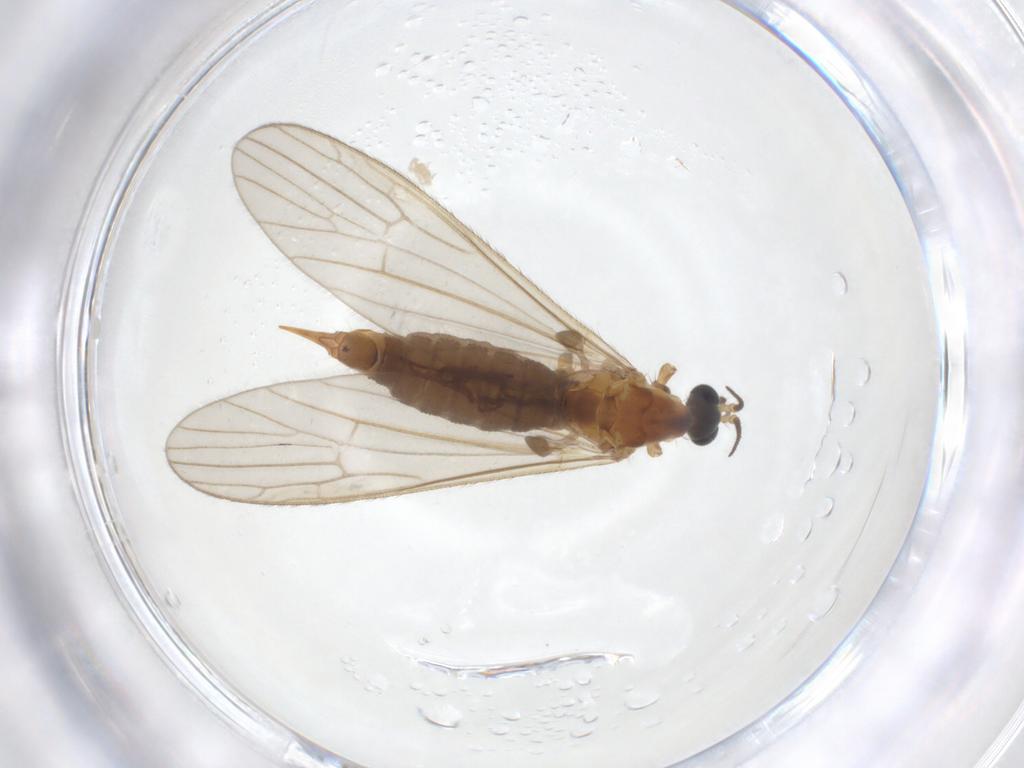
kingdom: Animalia
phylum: Arthropoda
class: Insecta
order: Diptera
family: Limoniidae
